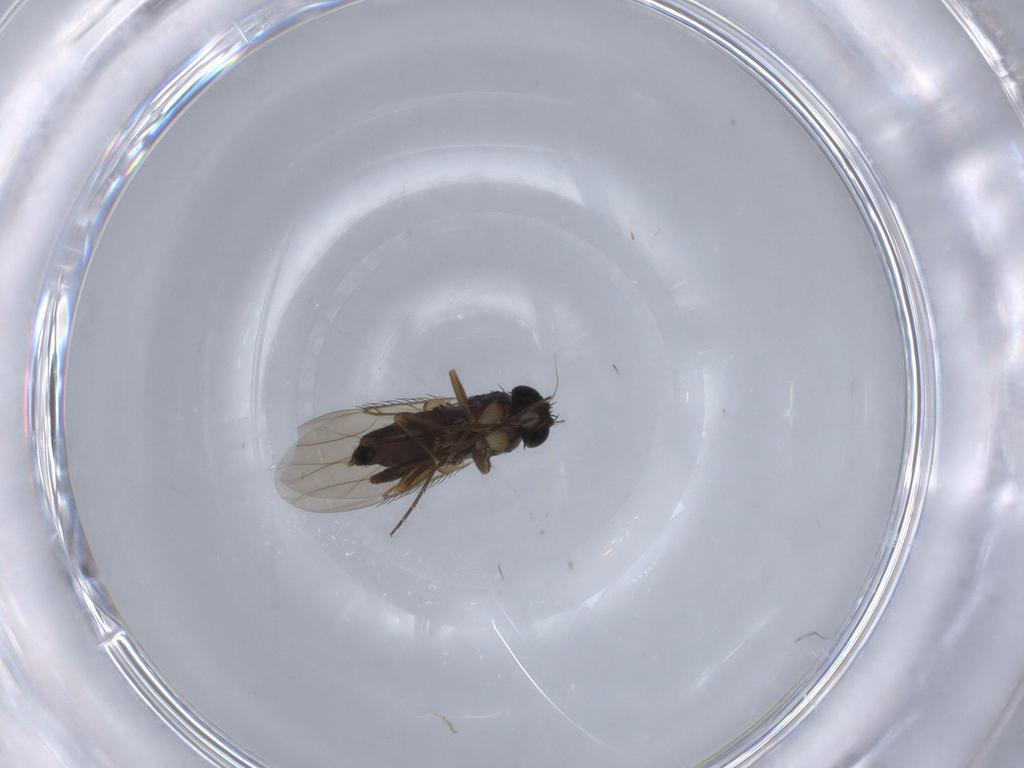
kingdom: Animalia
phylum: Arthropoda
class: Insecta
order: Diptera
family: Phoridae
